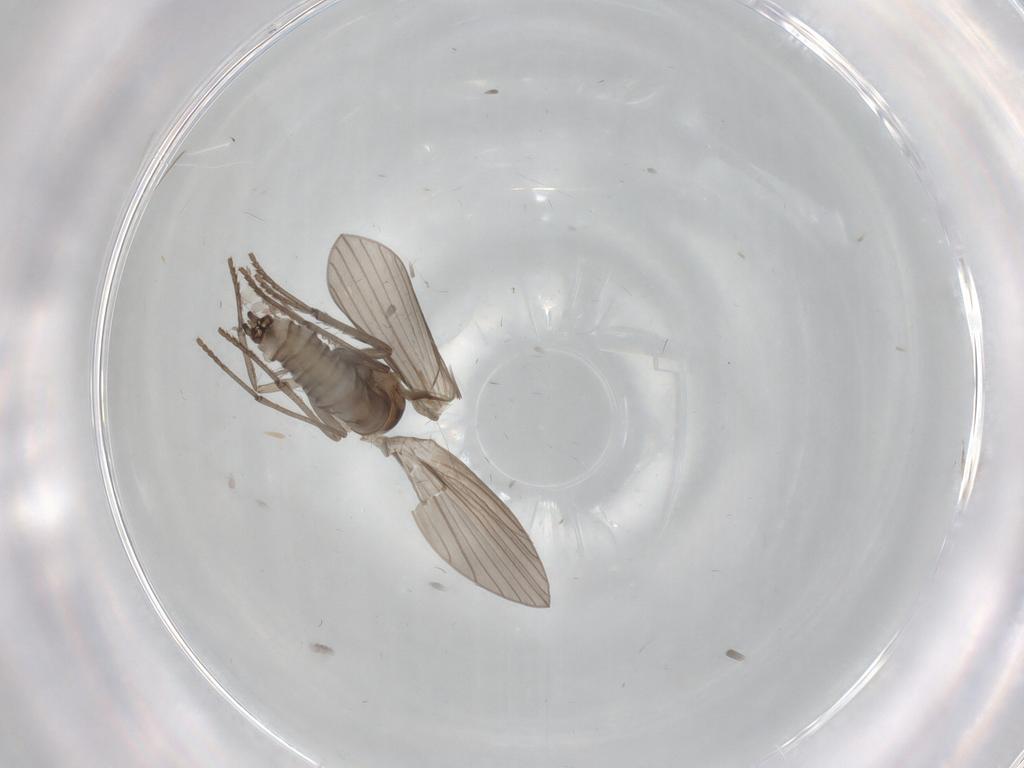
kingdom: Animalia
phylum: Arthropoda
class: Insecta
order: Diptera
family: Psychodidae
